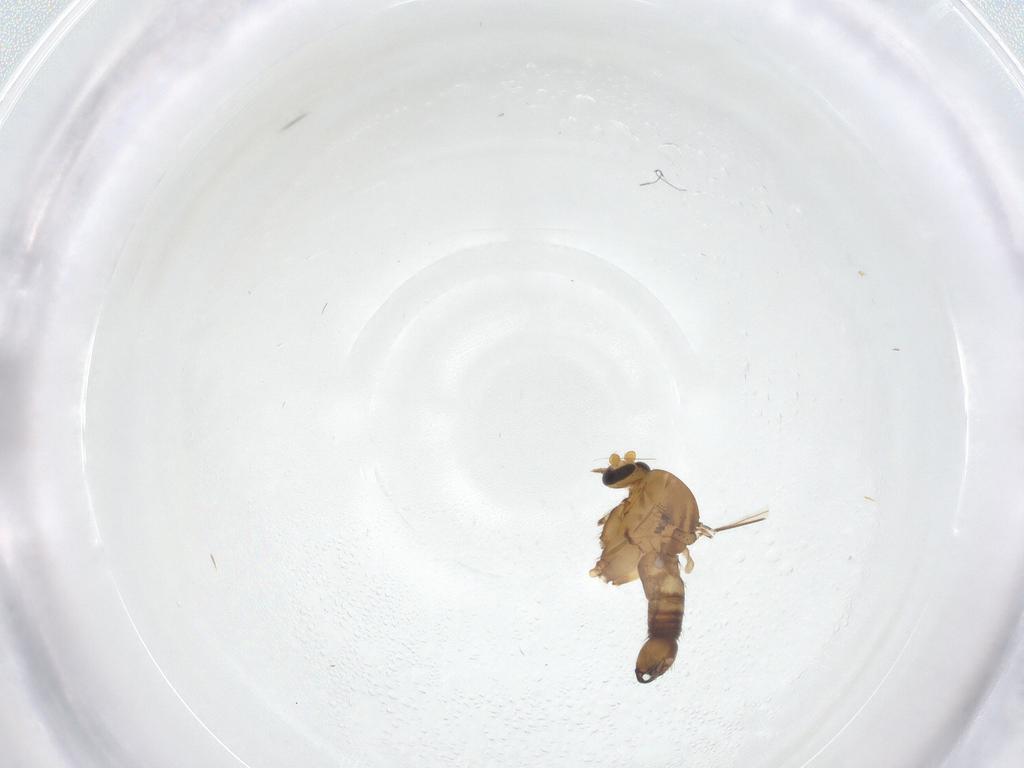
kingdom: Animalia
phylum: Arthropoda
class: Insecta
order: Diptera
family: Ceratopogonidae
